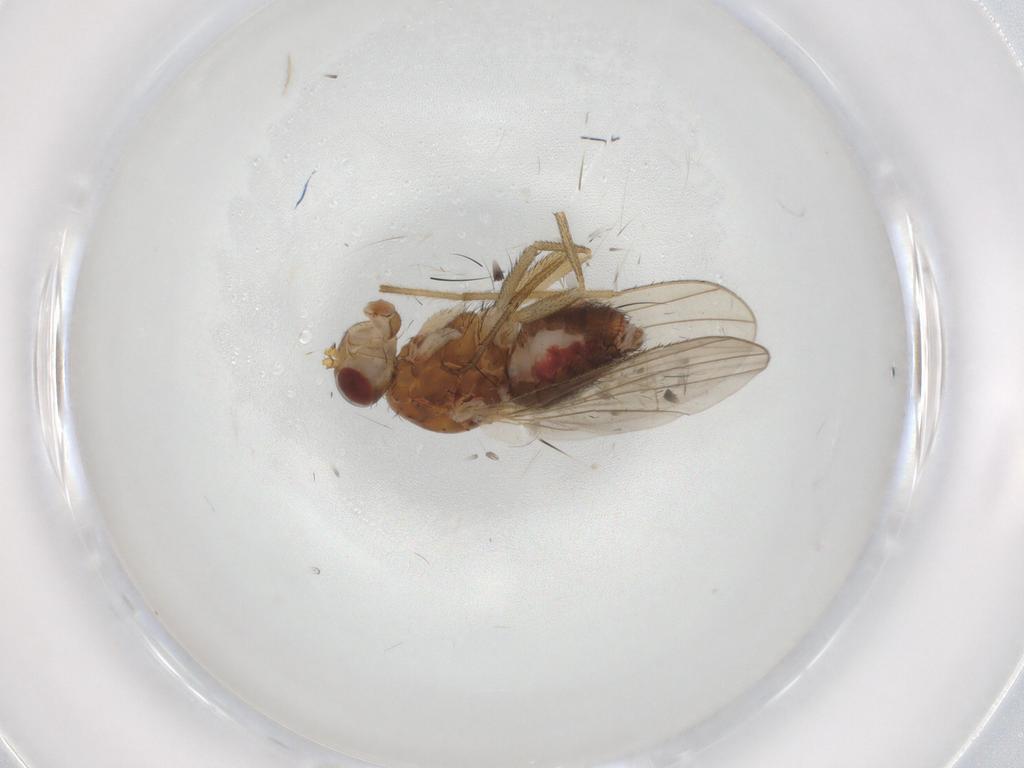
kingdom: Animalia
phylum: Arthropoda
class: Insecta
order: Diptera
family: Heleomyzidae
